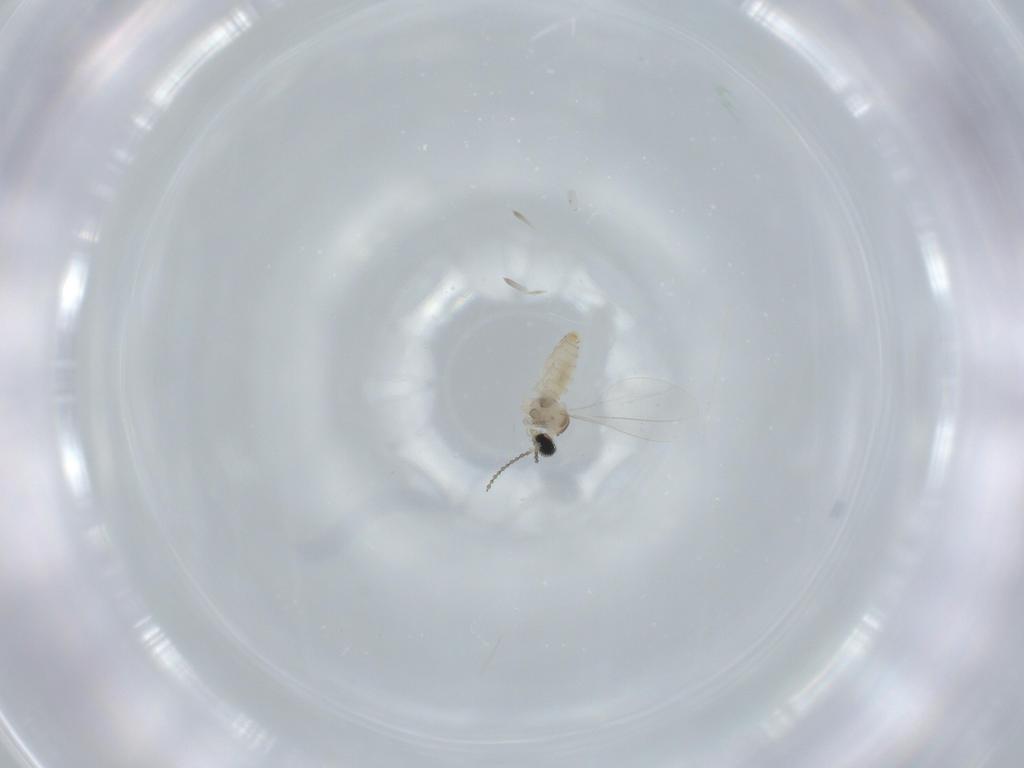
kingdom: Animalia
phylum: Arthropoda
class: Insecta
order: Diptera
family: Cecidomyiidae
